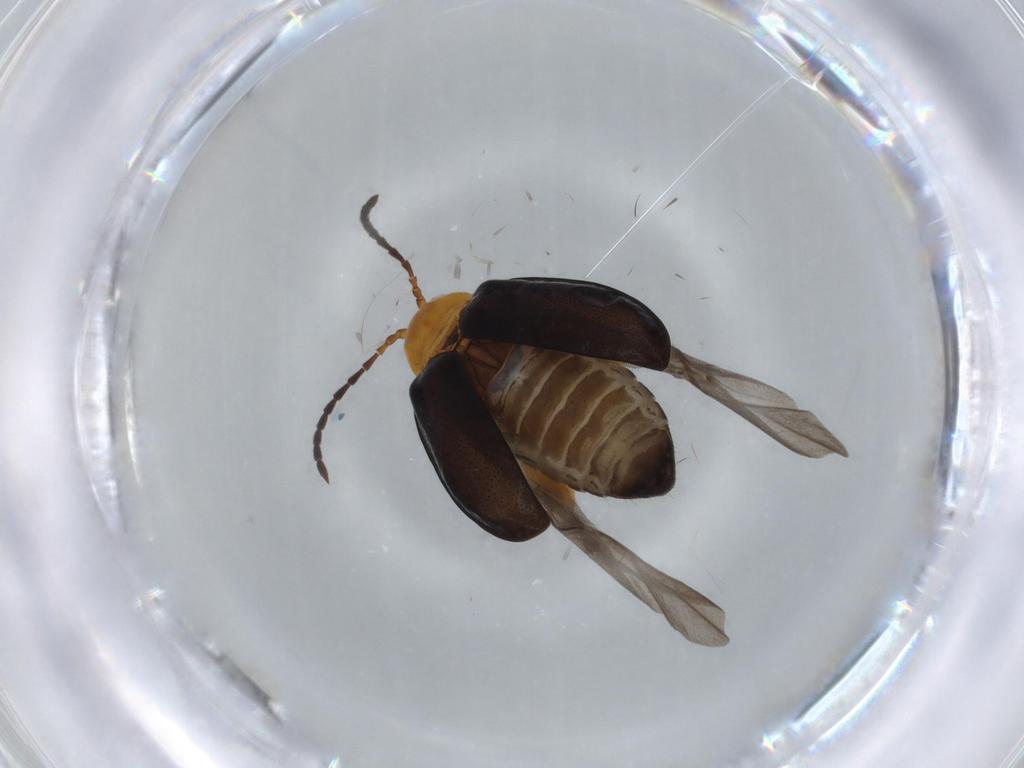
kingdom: Animalia
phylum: Arthropoda
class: Insecta
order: Coleoptera
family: Chrysomelidae
